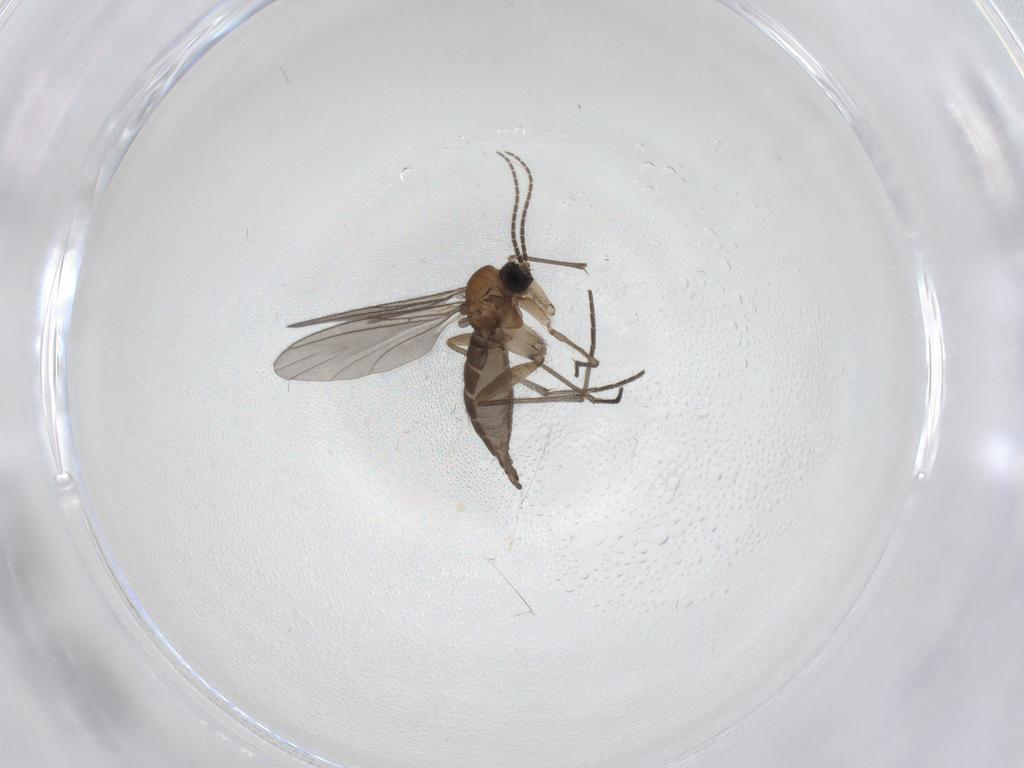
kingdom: Animalia
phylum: Arthropoda
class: Insecta
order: Diptera
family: Sciaridae
